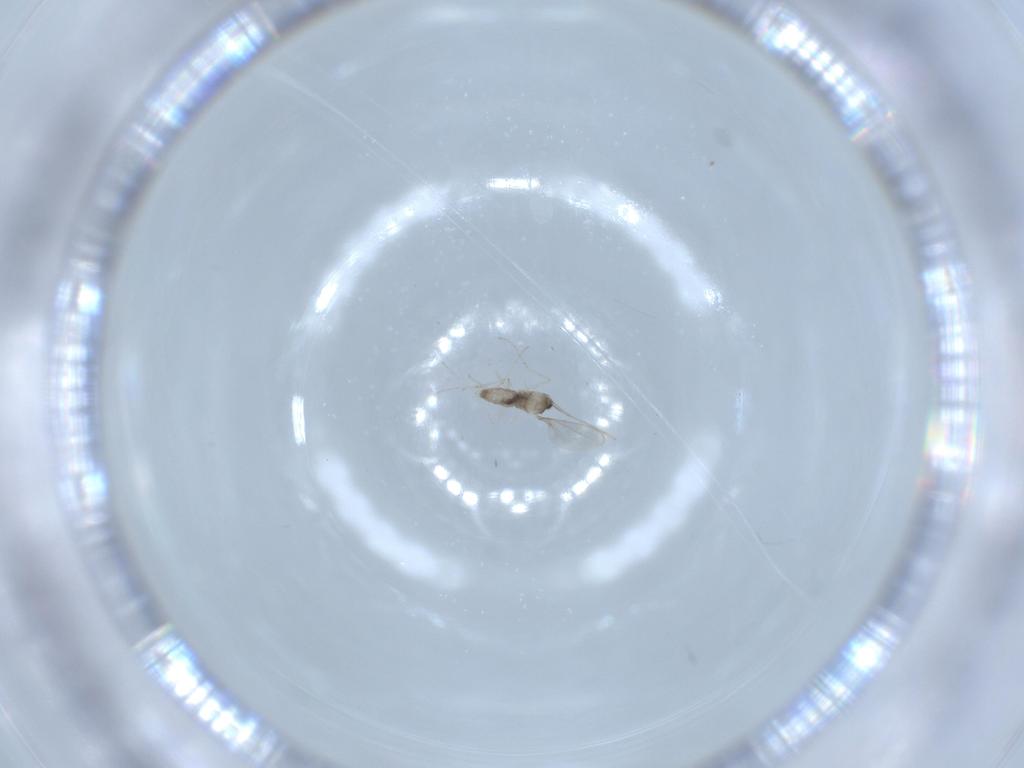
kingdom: Animalia
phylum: Arthropoda
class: Insecta
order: Diptera
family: Cecidomyiidae
